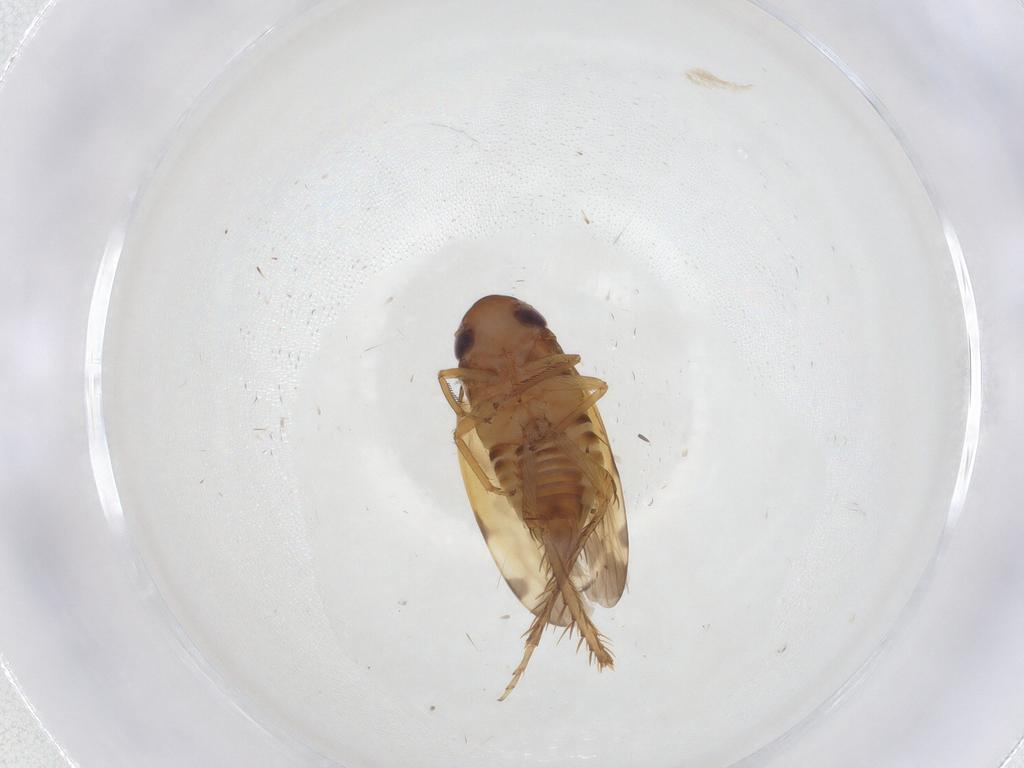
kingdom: Animalia
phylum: Arthropoda
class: Insecta
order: Hemiptera
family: Cicadellidae
